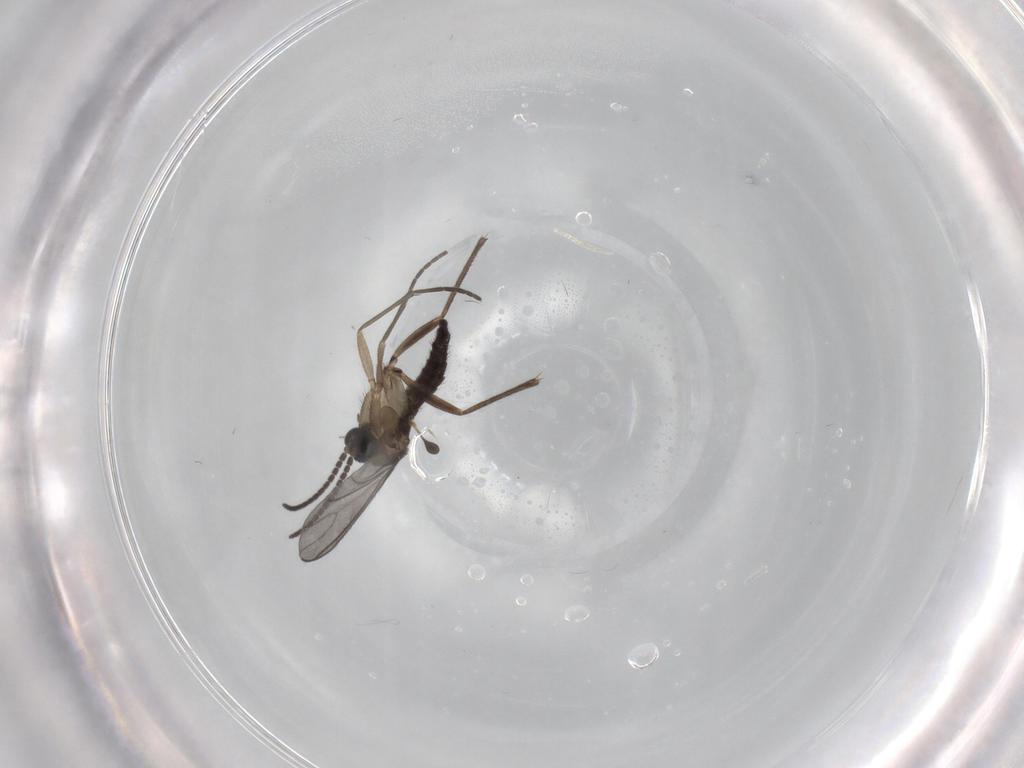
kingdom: Animalia
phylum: Arthropoda
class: Insecta
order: Diptera
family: Sciaridae
